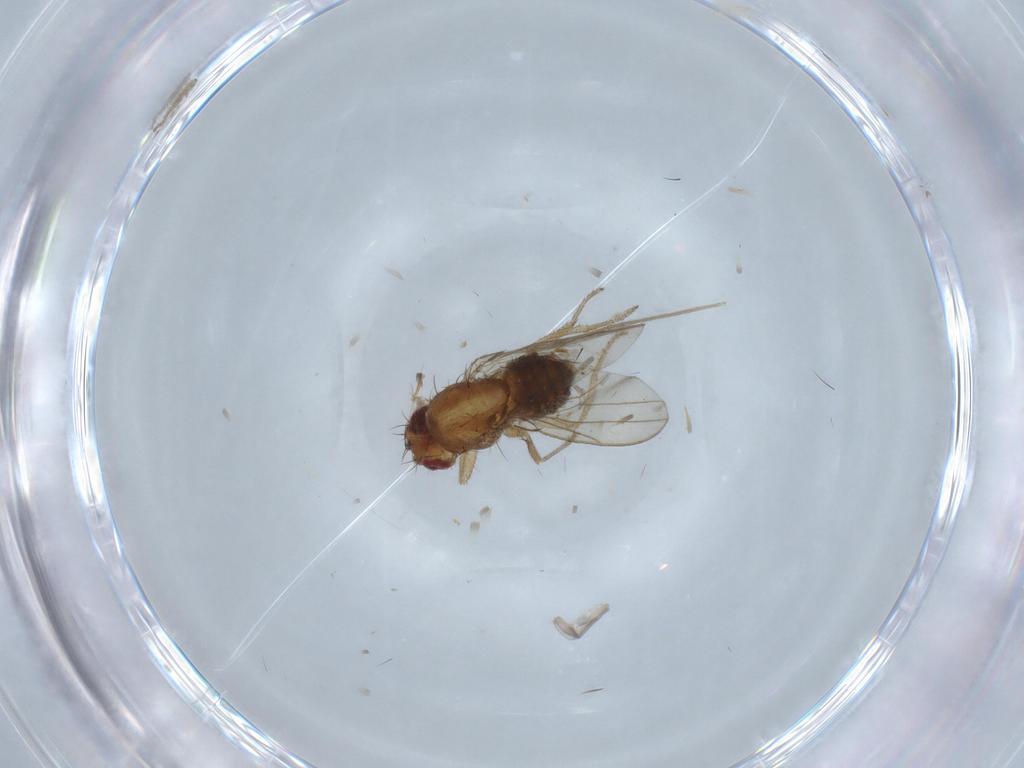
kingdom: Animalia
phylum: Arthropoda
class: Insecta
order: Diptera
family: Drosophilidae
